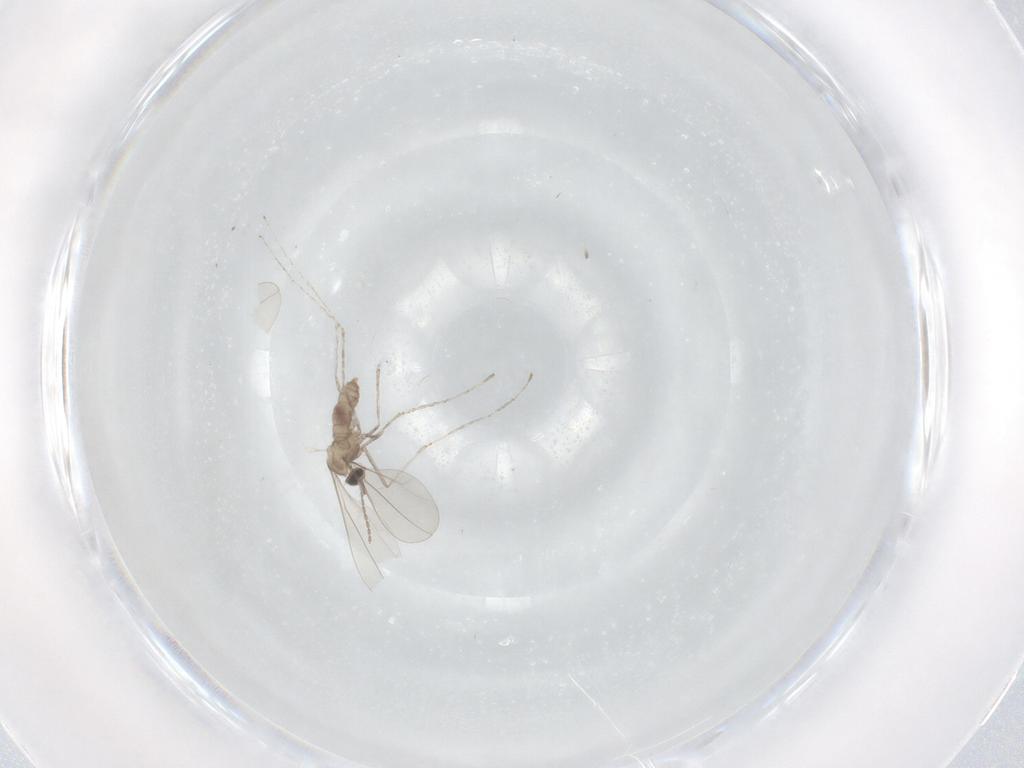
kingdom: Animalia
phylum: Arthropoda
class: Insecta
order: Diptera
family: Cecidomyiidae
